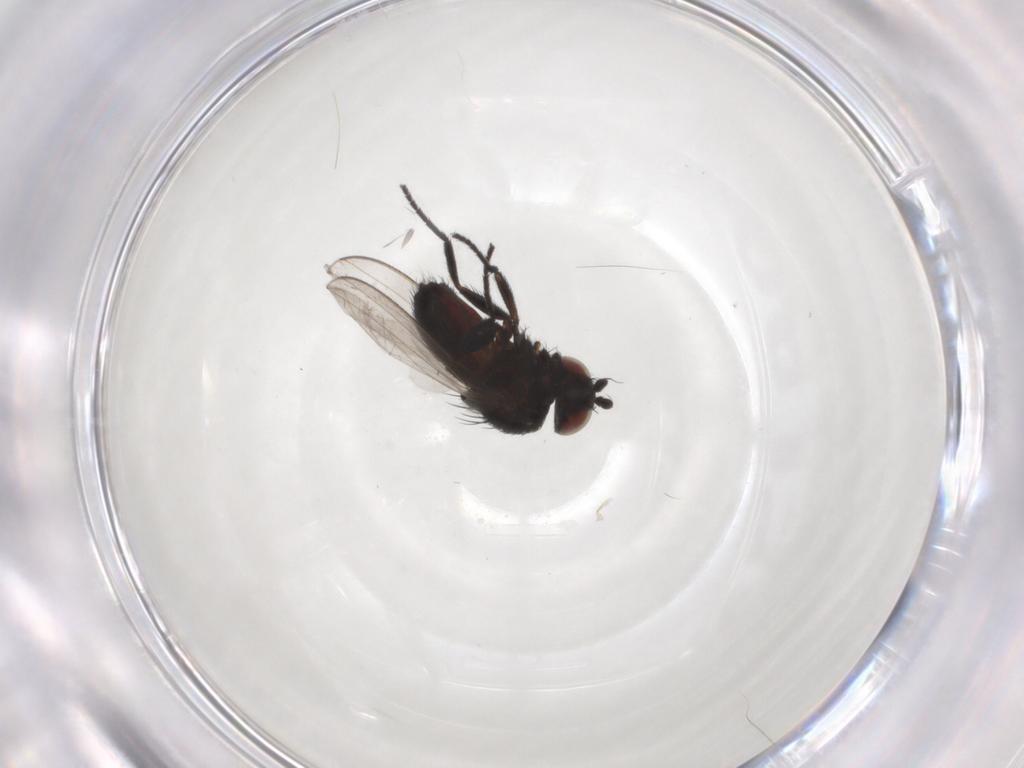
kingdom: Animalia
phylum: Arthropoda
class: Insecta
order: Diptera
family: Milichiidae
